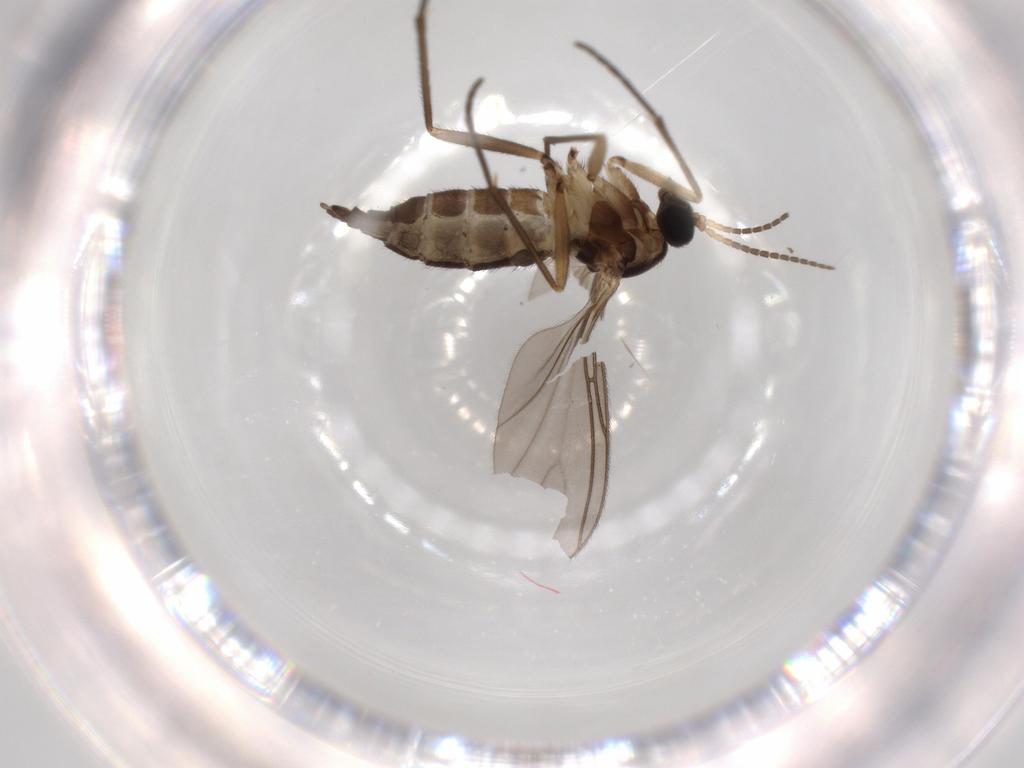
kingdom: Animalia
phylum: Arthropoda
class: Insecta
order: Diptera
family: Sciaridae
